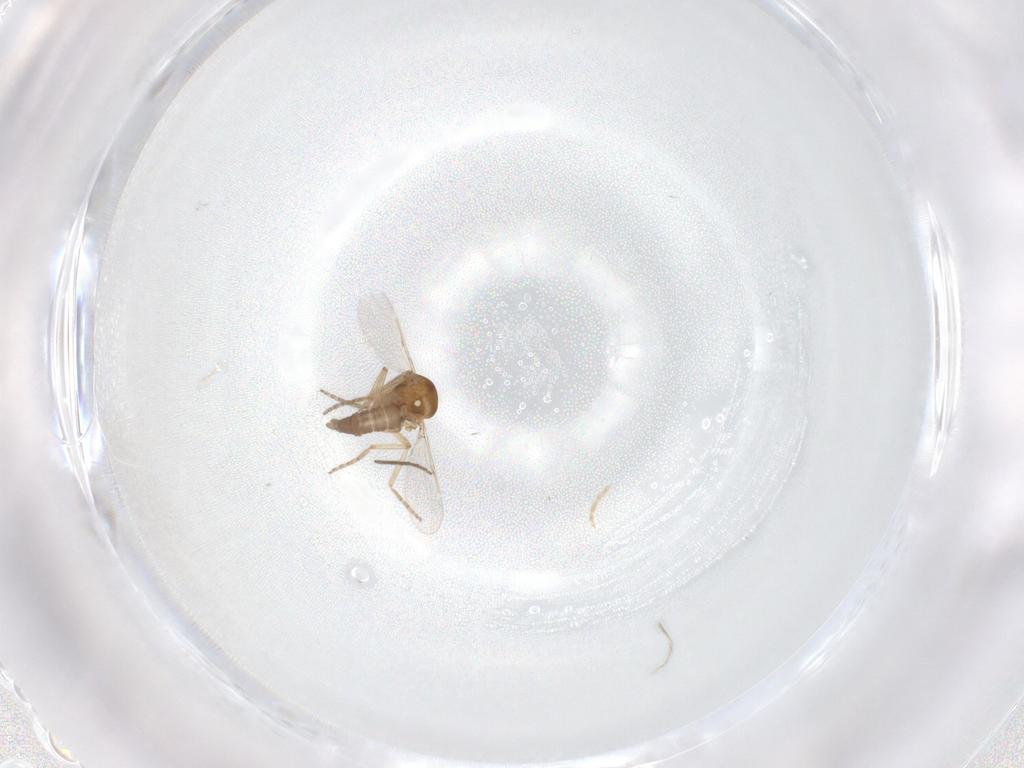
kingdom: Animalia
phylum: Arthropoda
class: Insecta
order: Diptera
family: Chironomidae
